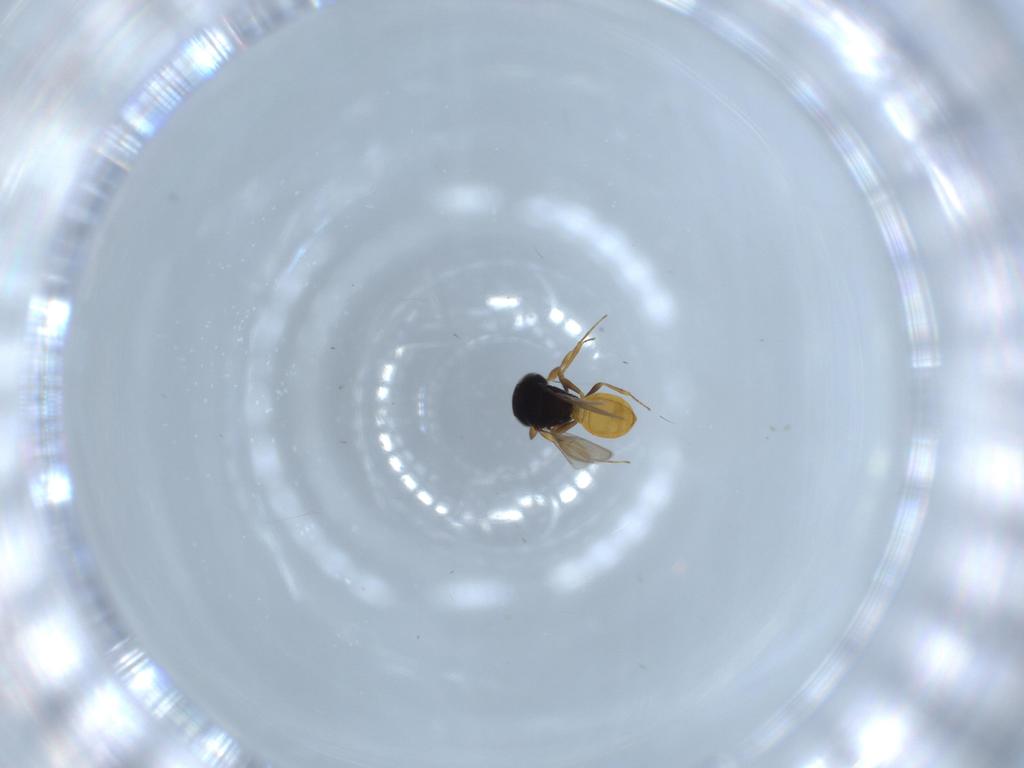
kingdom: Animalia
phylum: Arthropoda
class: Insecta
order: Hymenoptera
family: Scelionidae
